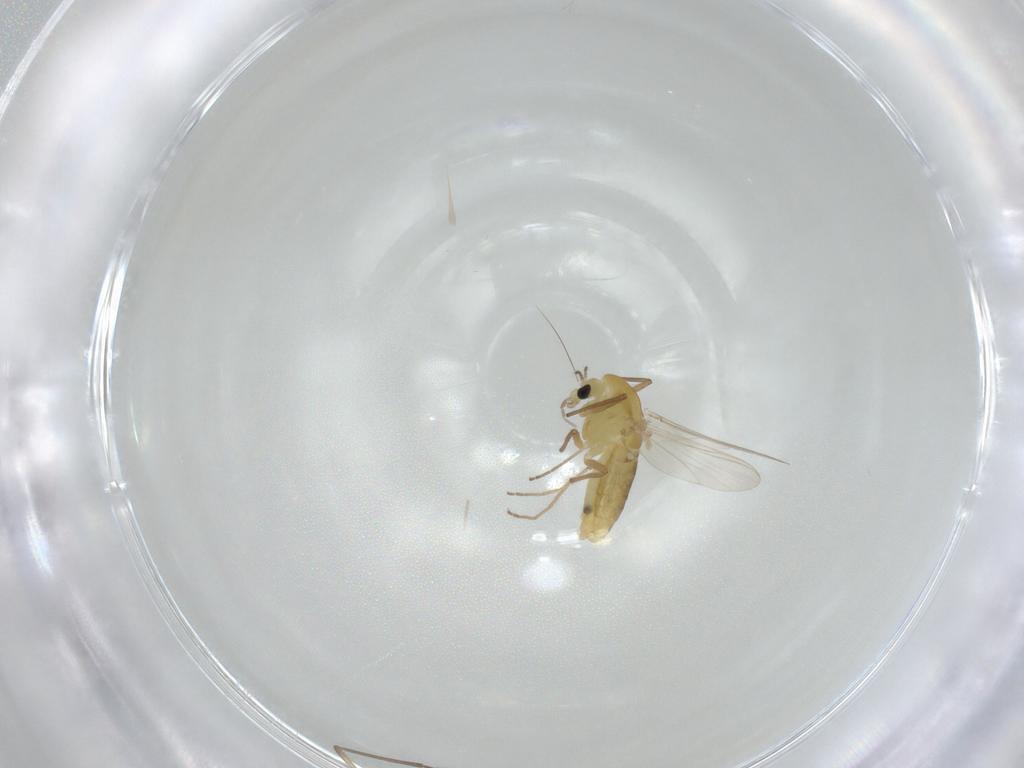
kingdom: Animalia
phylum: Arthropoda
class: Insecta
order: Diptera
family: Chironomidae
